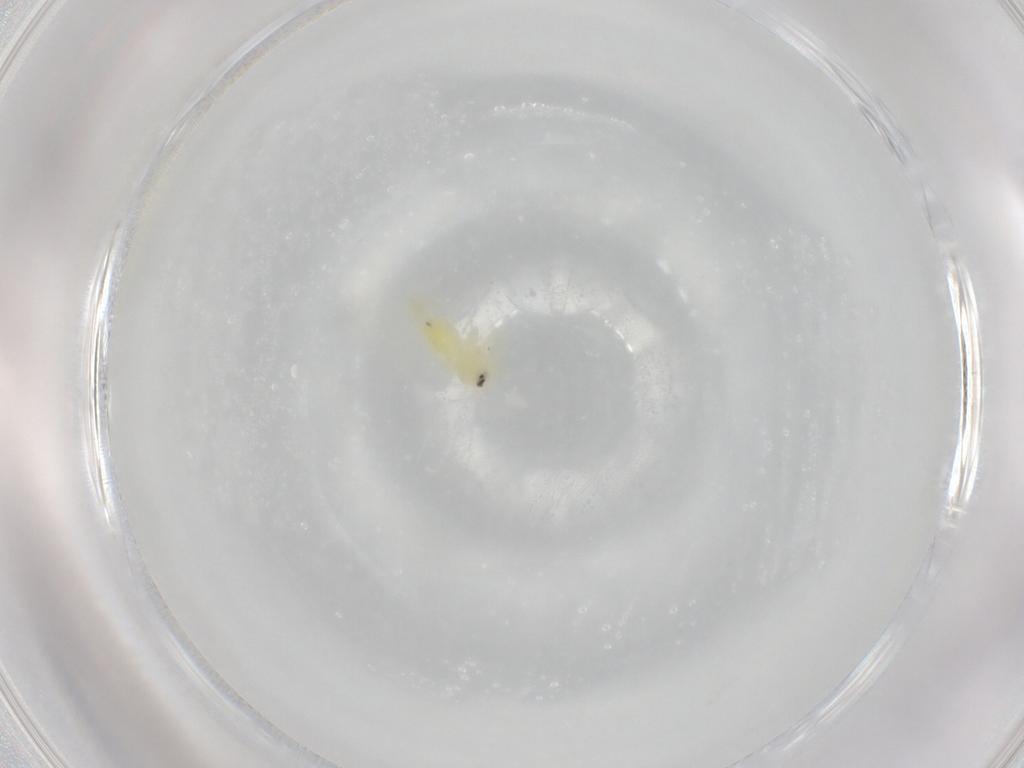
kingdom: Animalia
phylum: Arthropoda
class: Insecta
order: Hemiptera
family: Aleyrodidae
